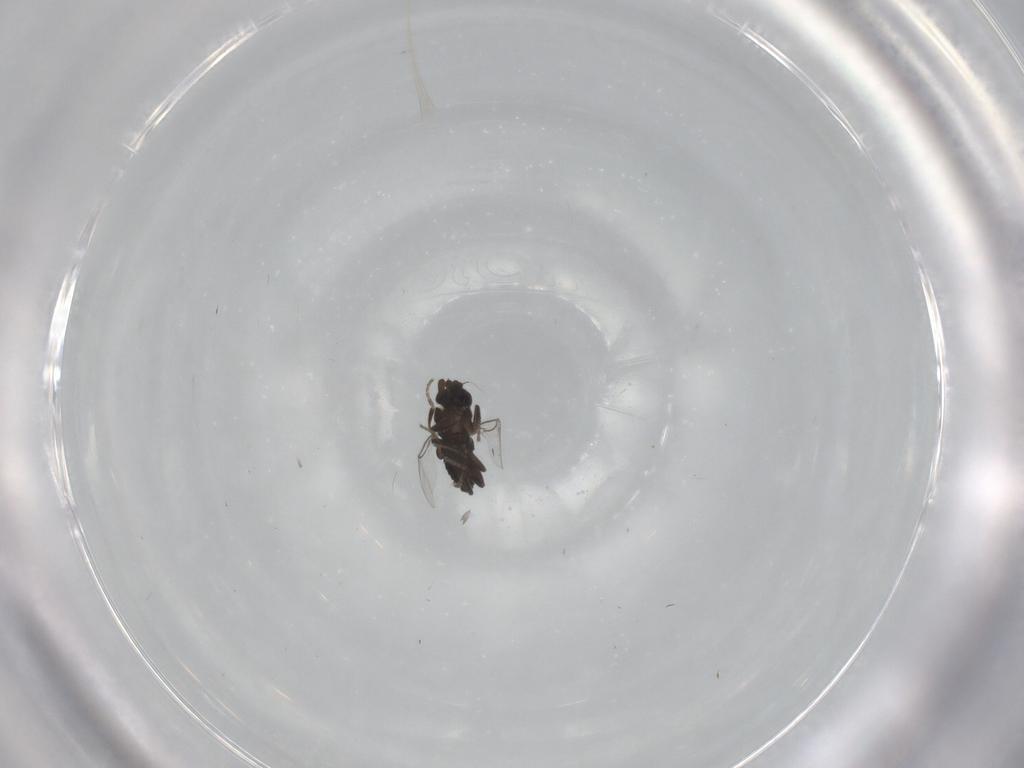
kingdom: Animalia
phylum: Arthropoda
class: Insecta
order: Diptera
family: Phoridae
